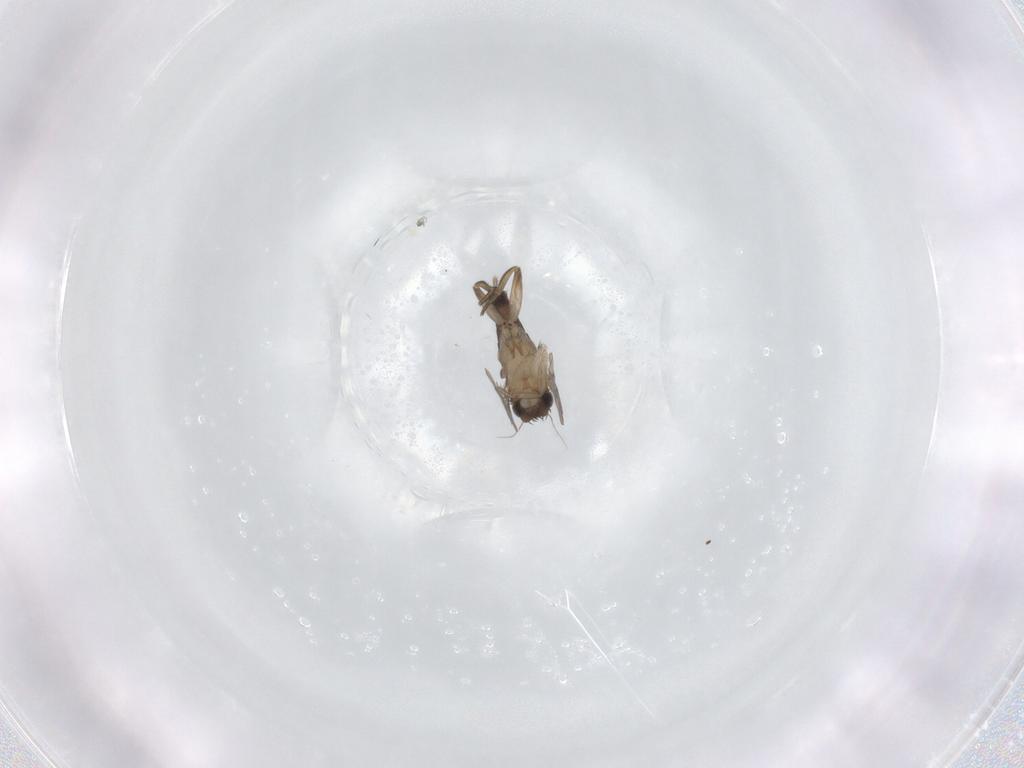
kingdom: Animalia
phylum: Arthropoda
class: Insecta
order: Diptera
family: Phoridae
